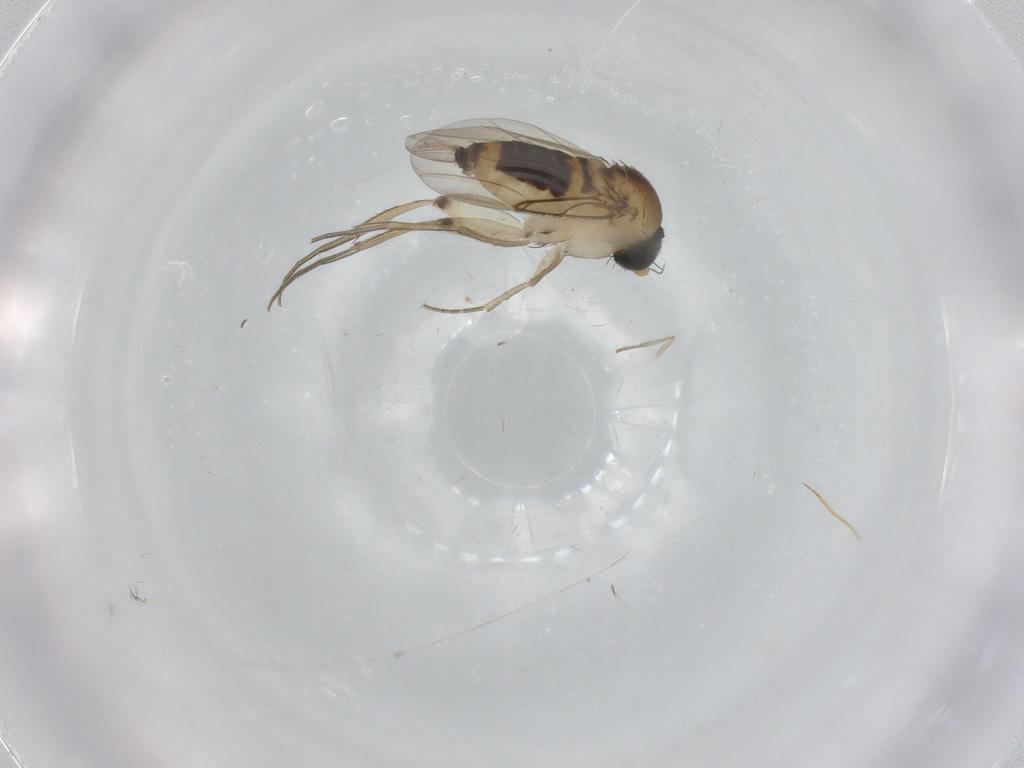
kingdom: Animalia
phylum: Arthropoda
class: Insecta
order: Diptera
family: Phoridae
